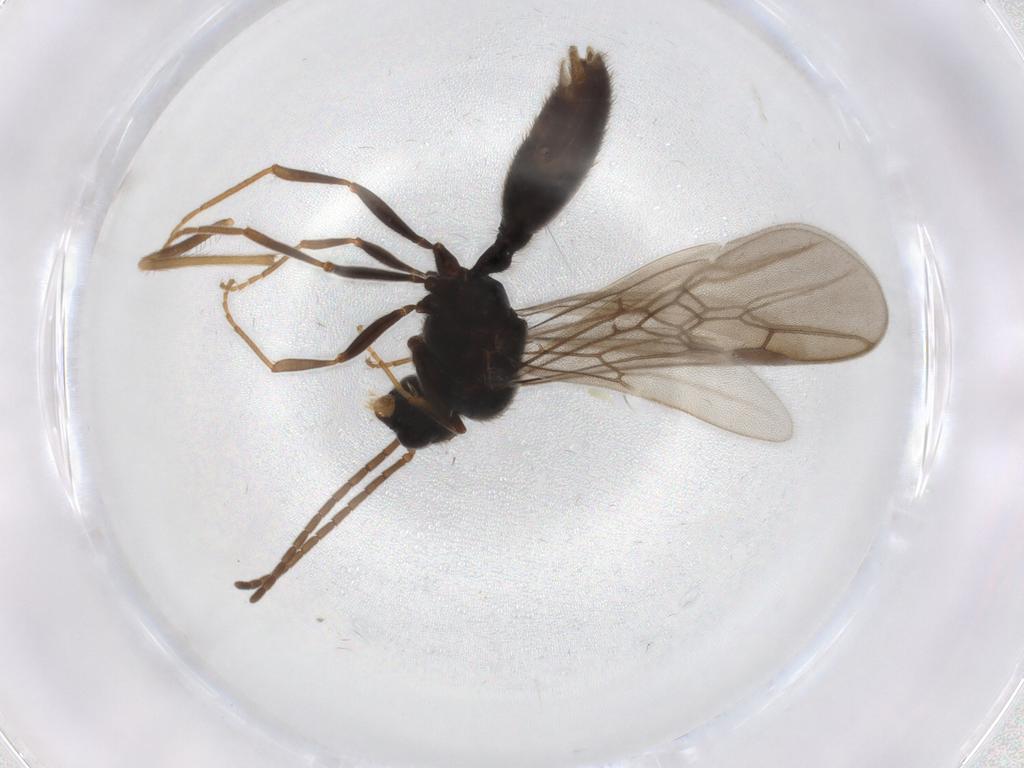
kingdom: Animalia
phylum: Arthropoda
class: Insecta
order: Hymenoptera
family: Formicidae
